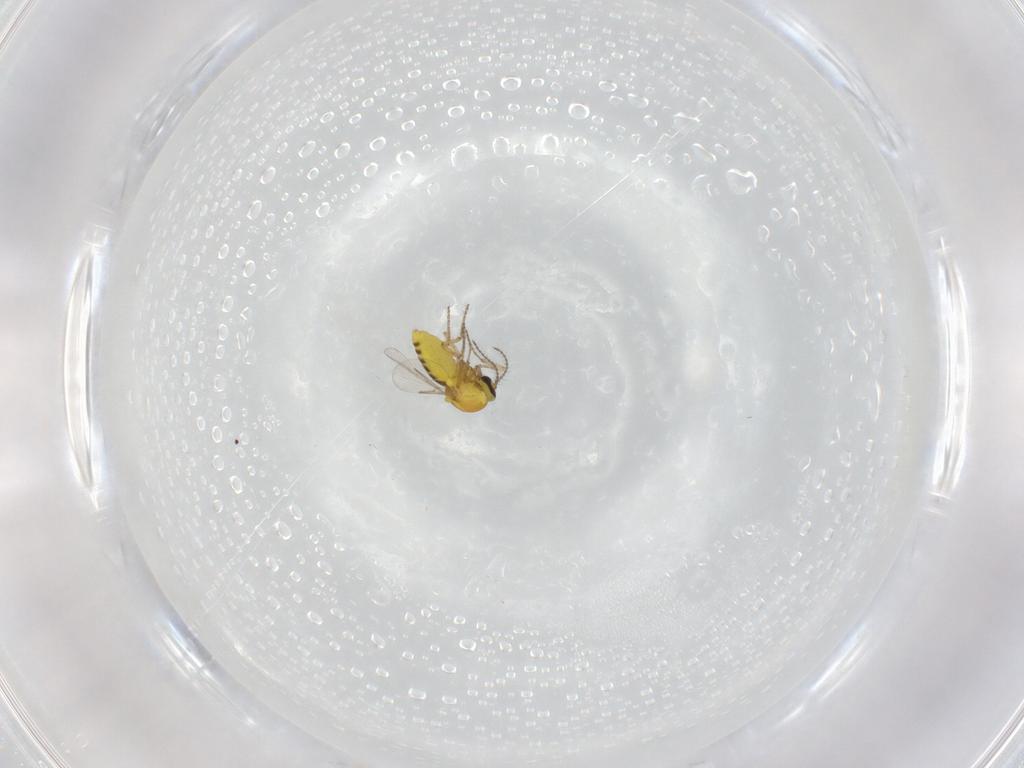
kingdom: Animalia
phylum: Arthropoda
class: Insecta
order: Diptera
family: Ceratopogonidae
